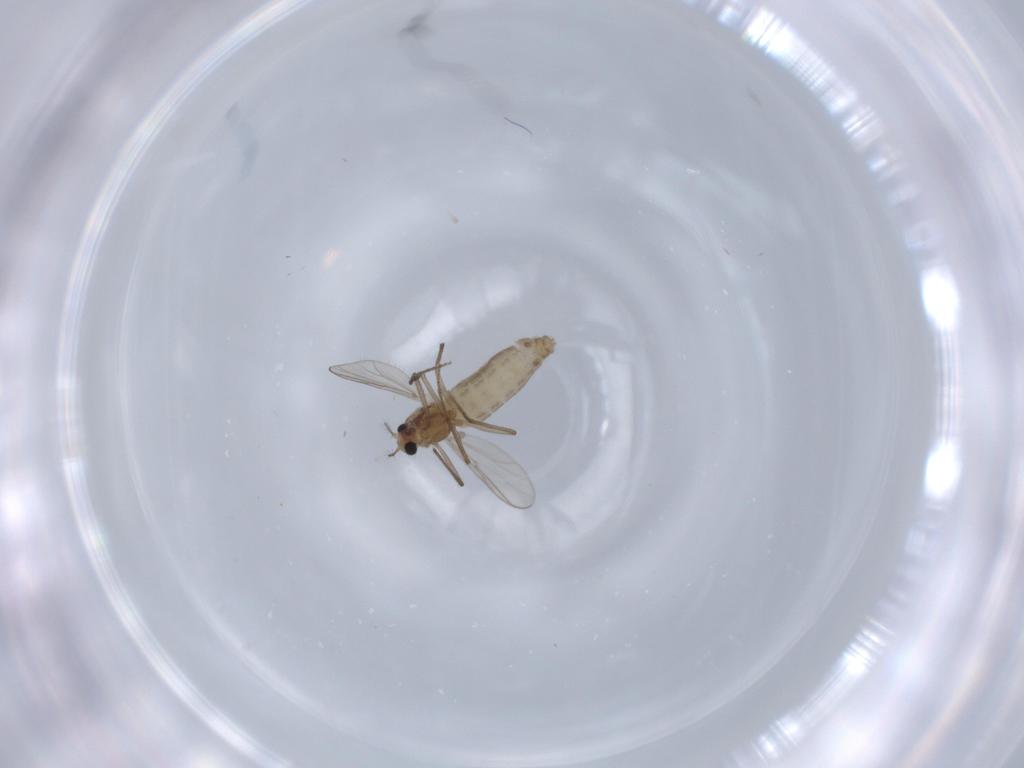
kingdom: Animalia
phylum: Arthropoda
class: Insecta
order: Diptera
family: Chironomidae
